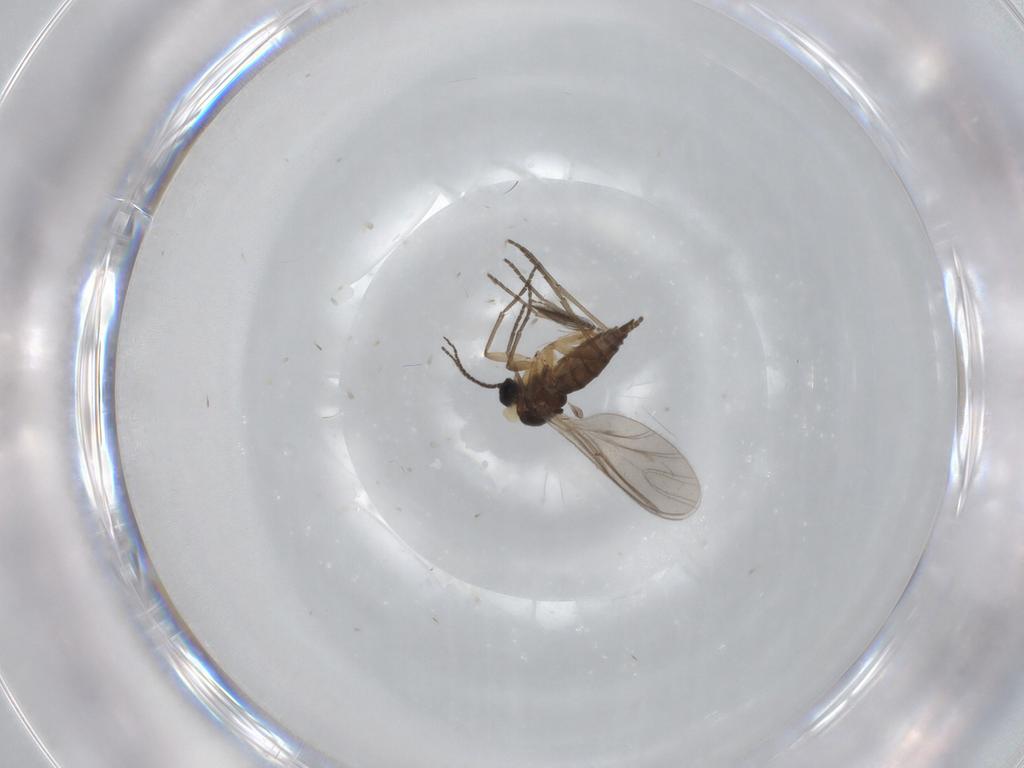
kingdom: Animalia
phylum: Arthropoda
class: Insecta
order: Diptera
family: Ceratopogonidae
